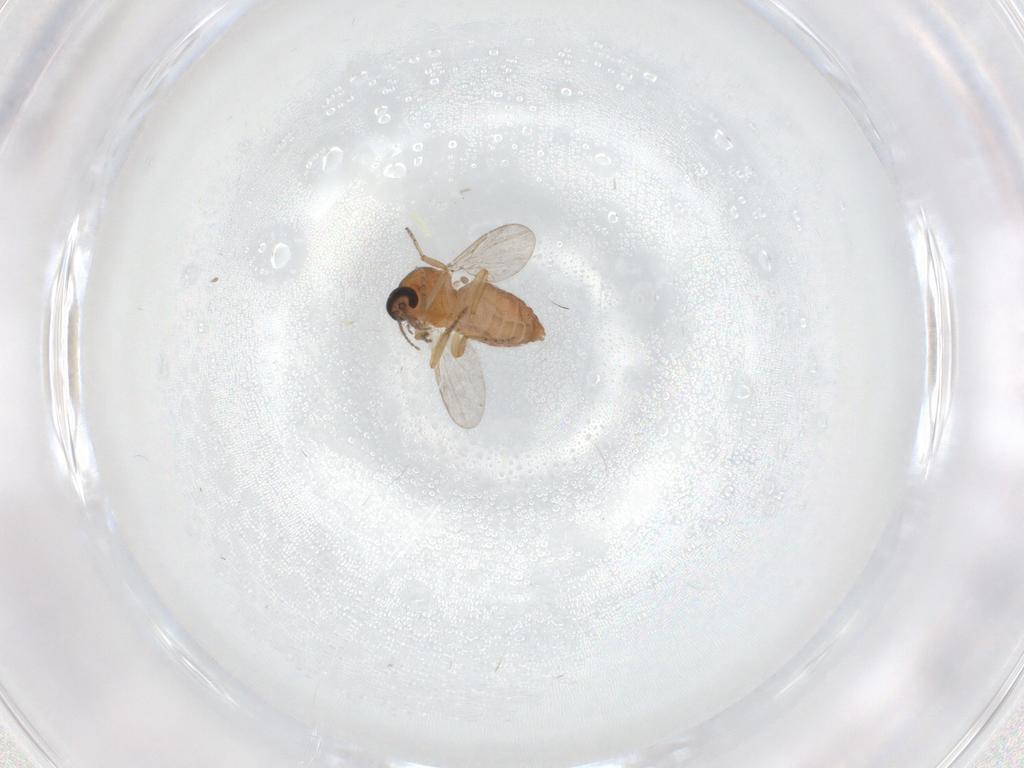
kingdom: Animalia
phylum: Arthropoda
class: Insecta
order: Diptera
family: Ceratopogonidae
